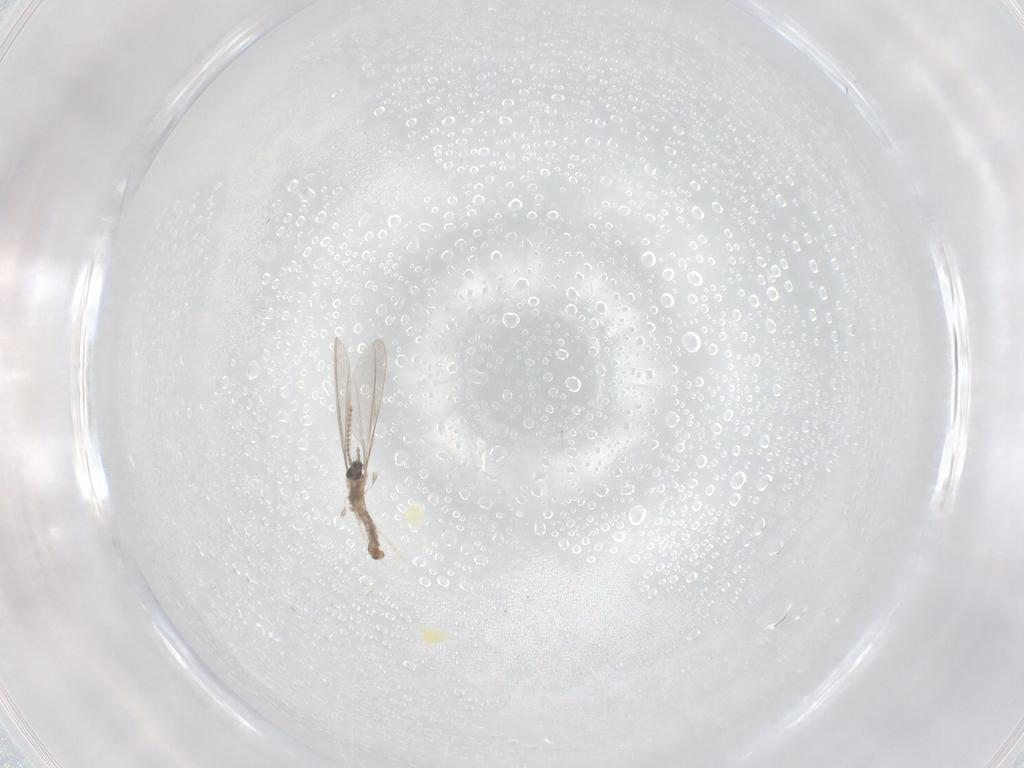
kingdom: Animalia
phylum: Arthropoda
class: Insecta
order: Diptera
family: Cecidomyiidae
